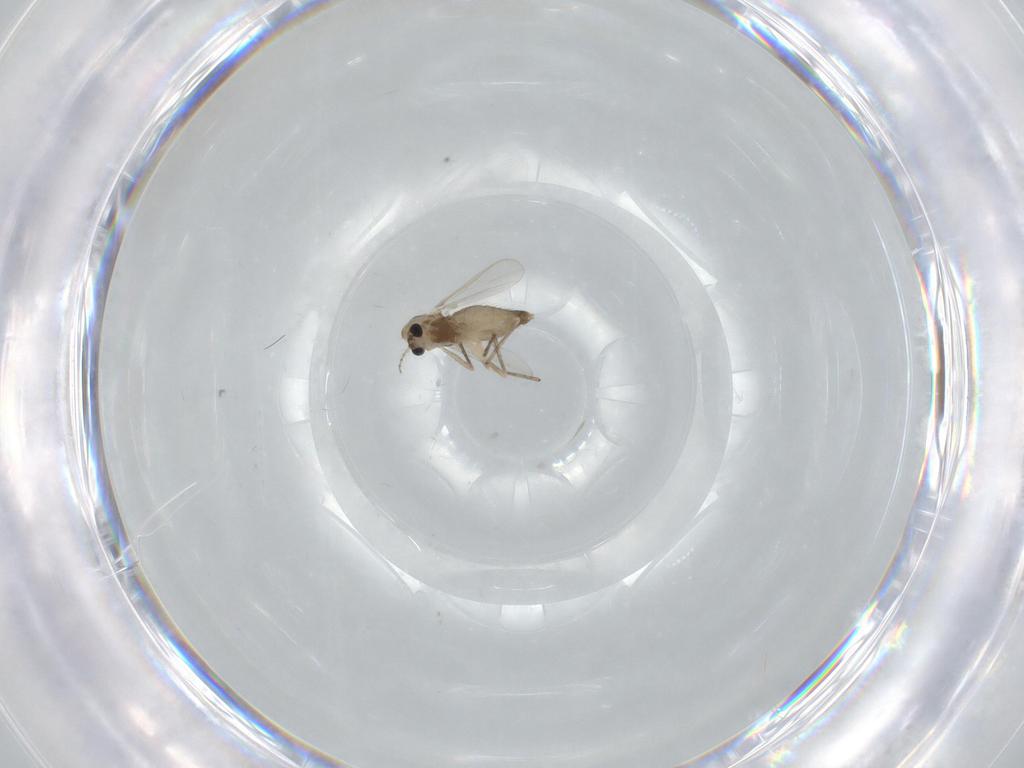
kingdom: Animalia
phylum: Arthropoda
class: Insecta
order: Diptera
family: Chironomidae
